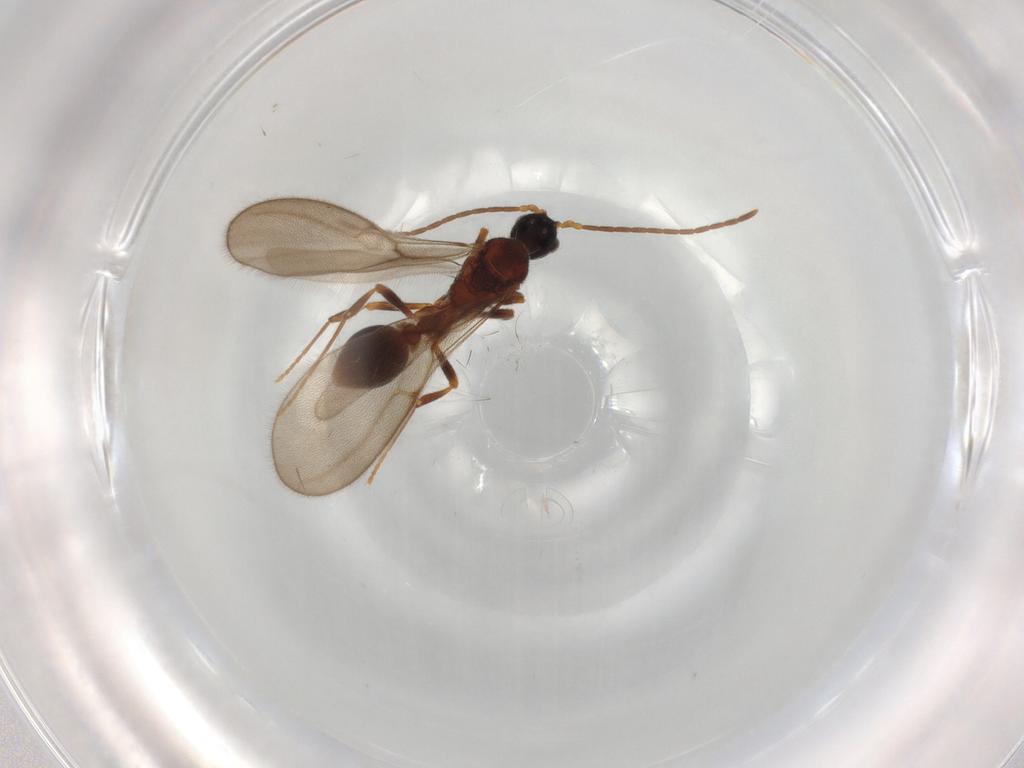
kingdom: Animalia
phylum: Arthropoda
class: Insecta
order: Hymenoptera
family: Formicidae
